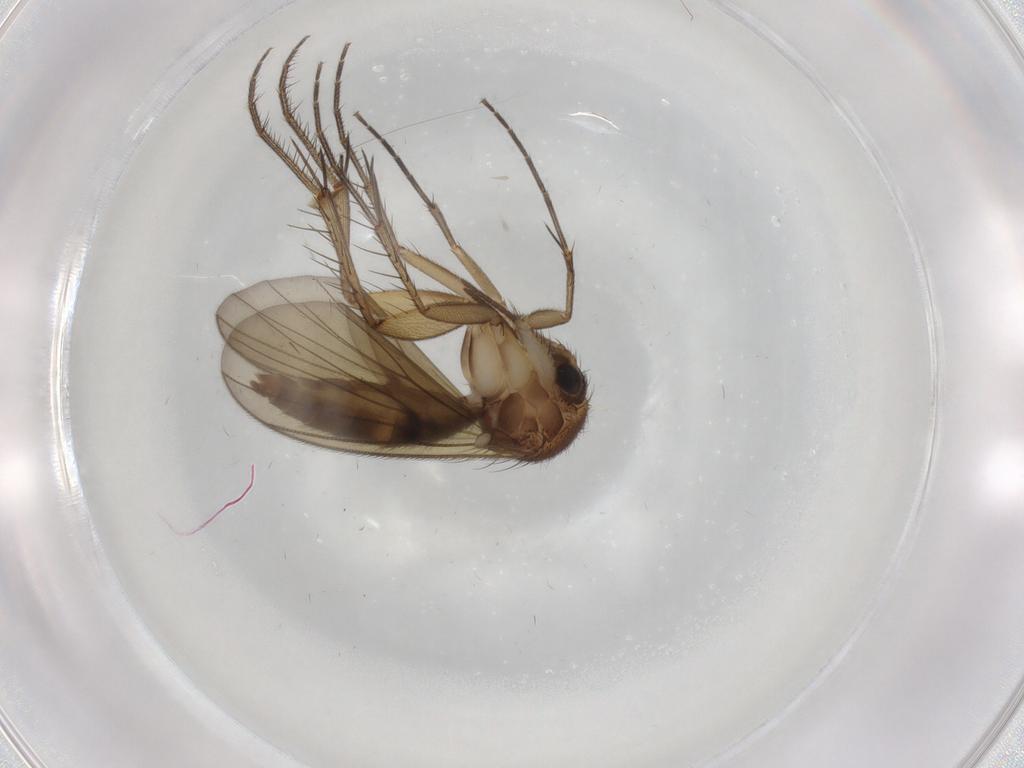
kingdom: Animalia
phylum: Arthropoda
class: Insecta
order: Diptera
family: Mycetophilidae
